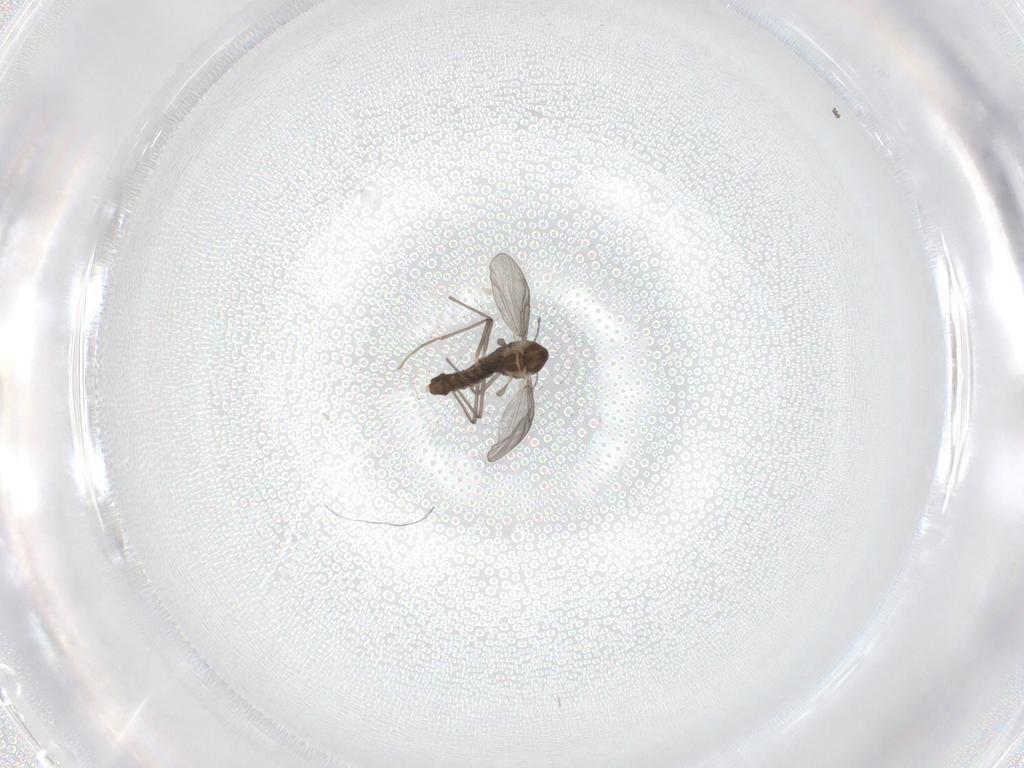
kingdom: Animalia
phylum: Arthropoda
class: Insecta
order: Diptera
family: Chironomidae
